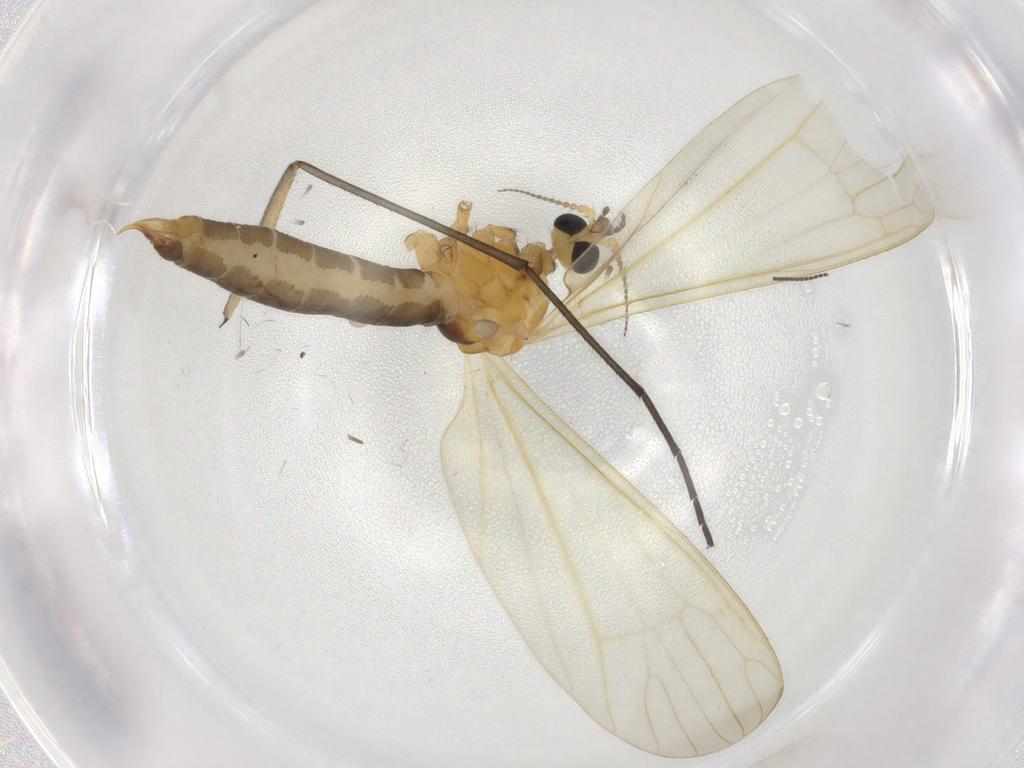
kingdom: Animalia
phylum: Arthropoda
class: Insecta
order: Diptera
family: Limoniidae
